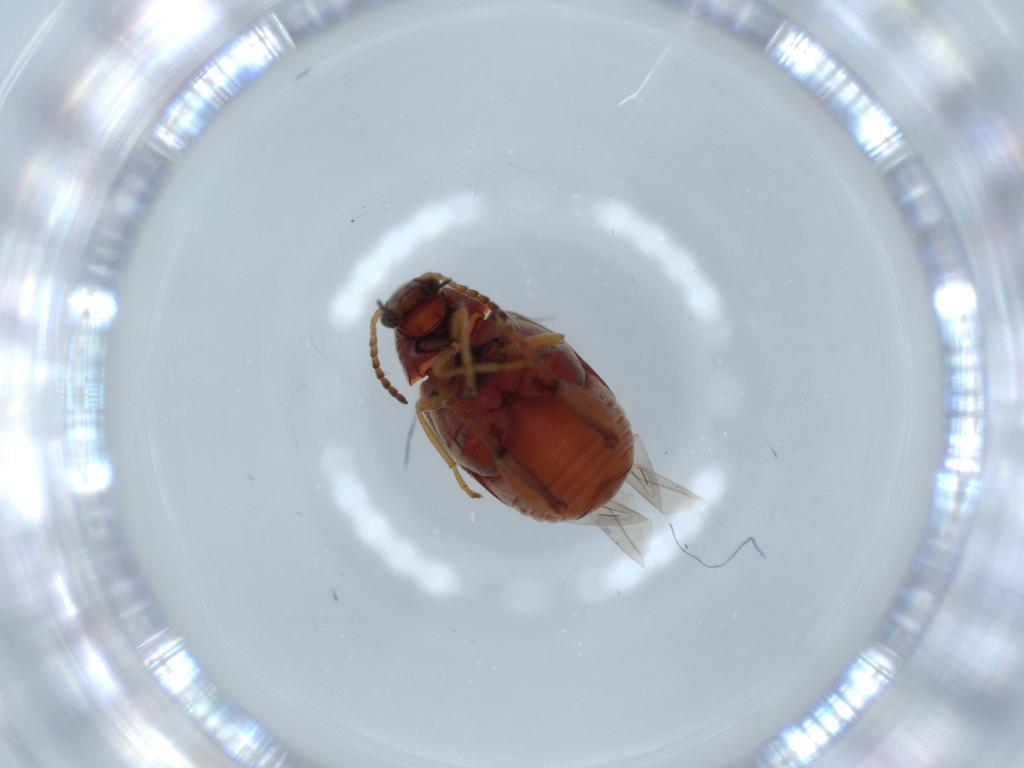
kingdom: Animalia
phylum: Arthropoda
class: Insecta
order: Coleoptera
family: Chrysomelidae
